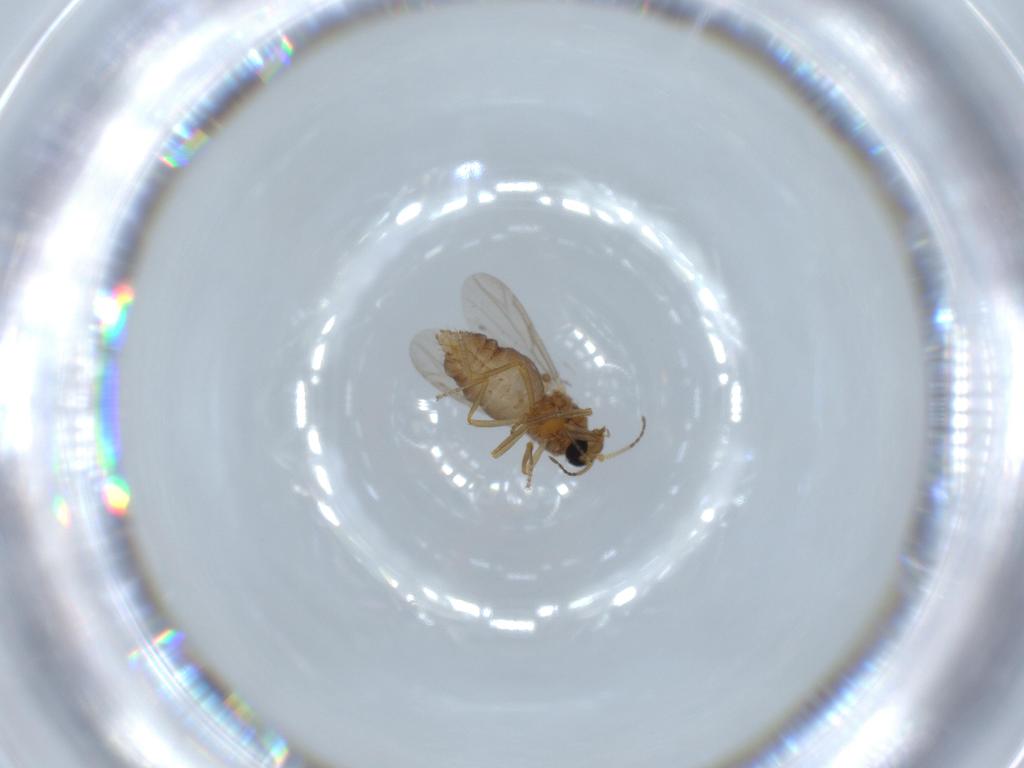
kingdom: Animalia
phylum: Arthropoda
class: Insecta
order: Diptera
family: Ceratopogonidae
